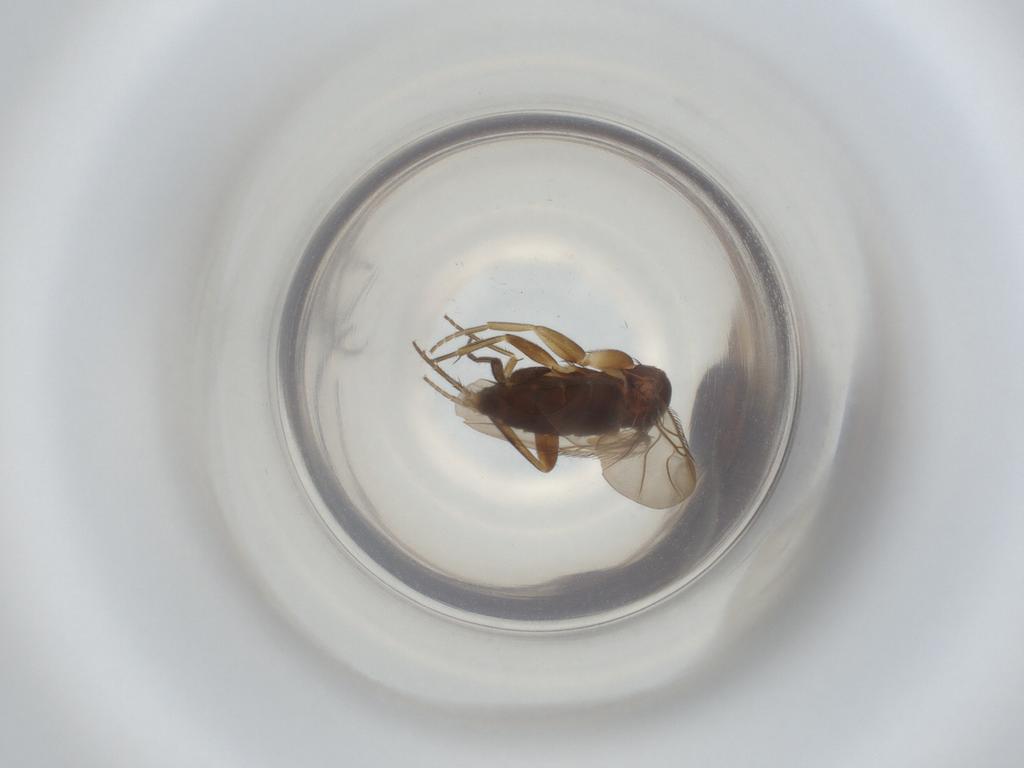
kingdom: Animalia
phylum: Arthropoda
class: Insecta
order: Diptera
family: Phoridae
